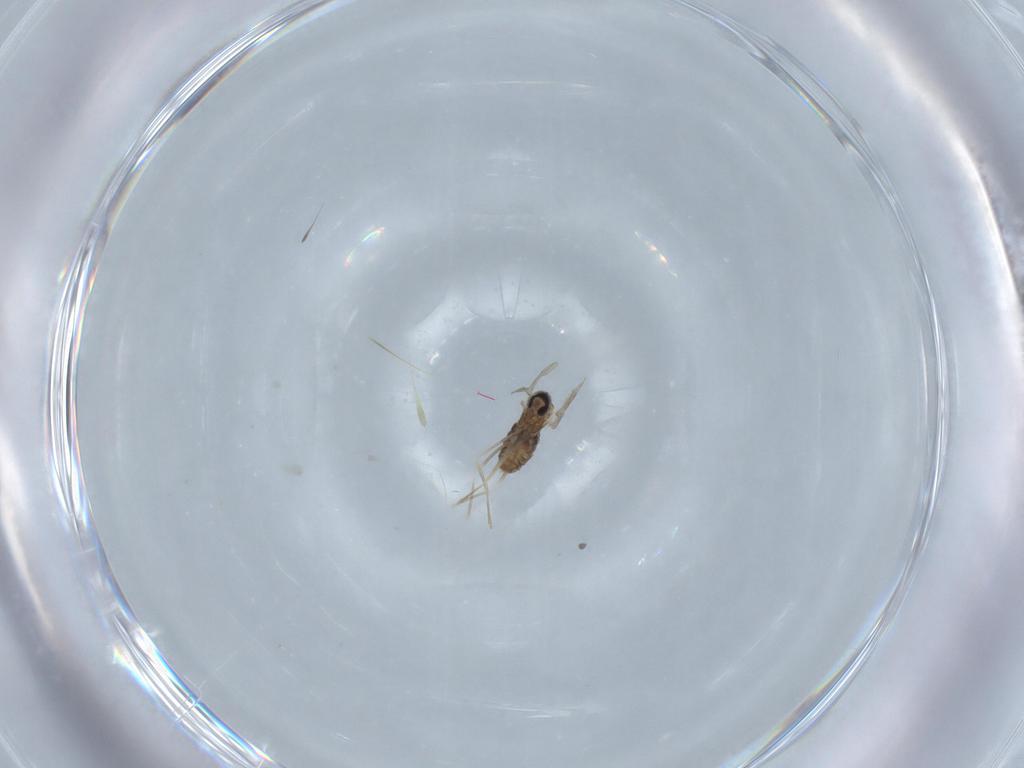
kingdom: Animalia
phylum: Arthropoda
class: Insecta
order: Diptera
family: Cecidomyiidae
